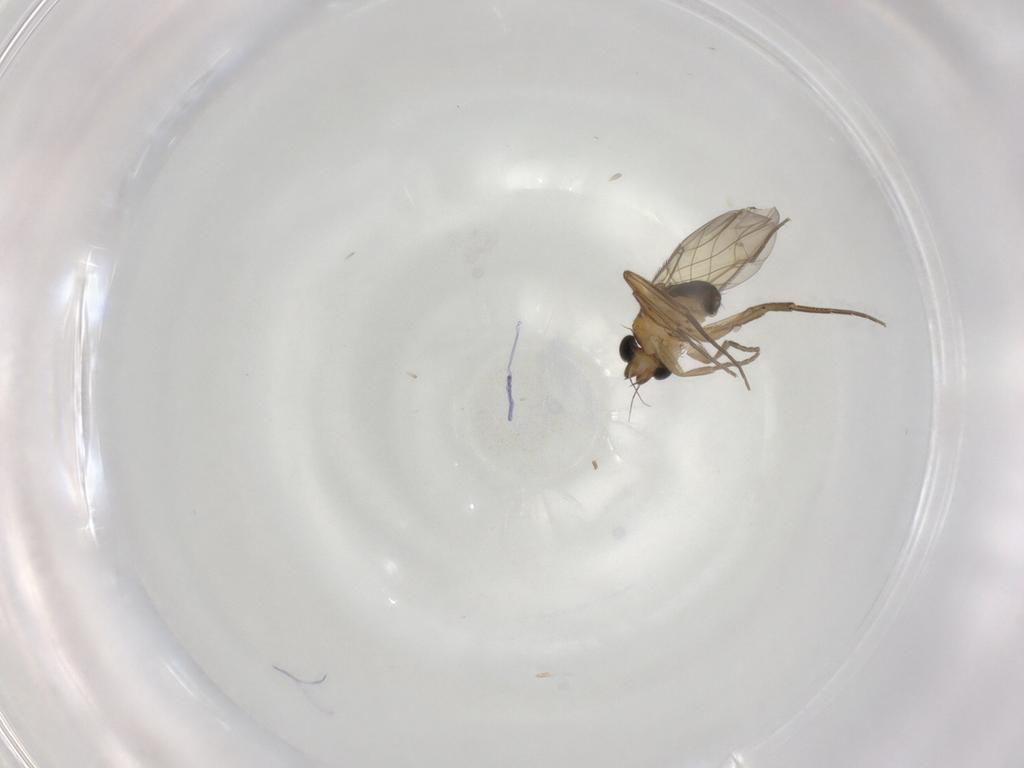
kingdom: Animalia
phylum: Arthropoda
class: Insecta
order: Diptera
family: Phoridae
